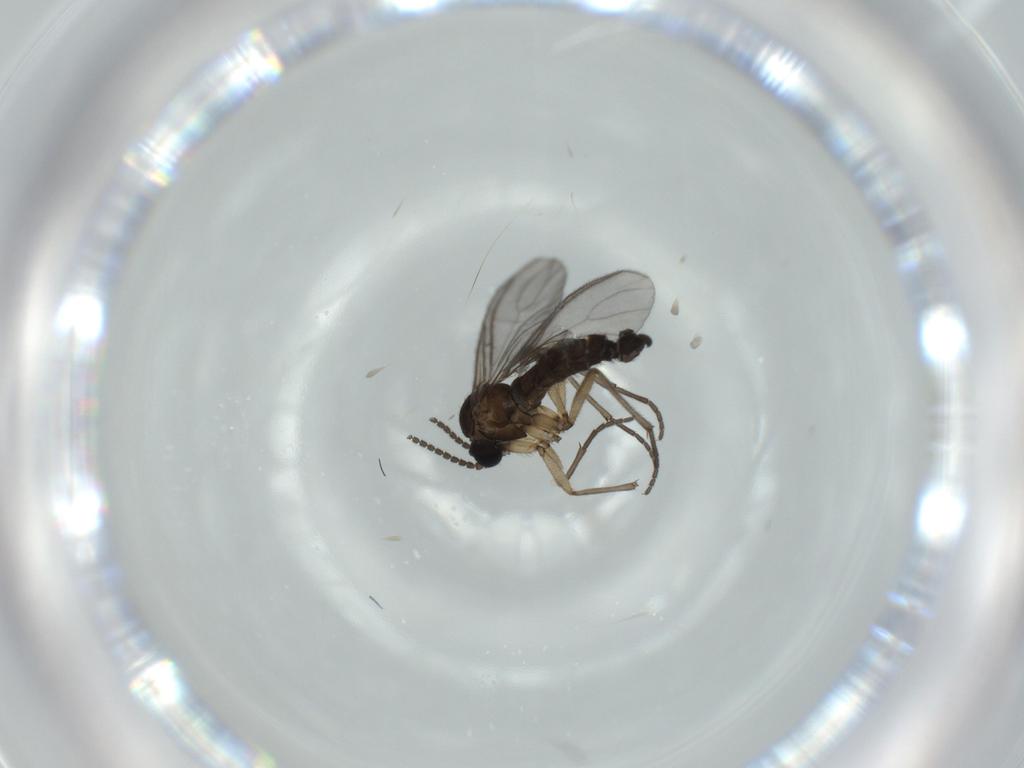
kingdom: Animalia
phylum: Arthropoda
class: Insecta
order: Diptera
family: Sciaridae
